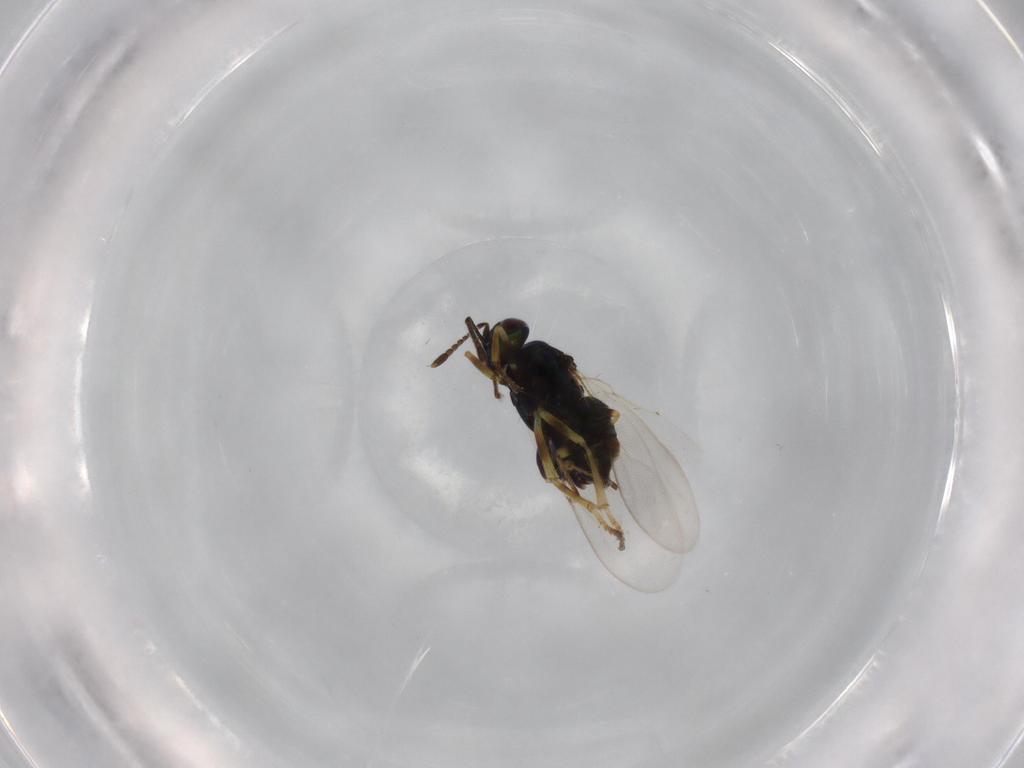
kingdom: Animalia
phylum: Arthropoda
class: Insecta
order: Hymenoptera
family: Encyrtidae
